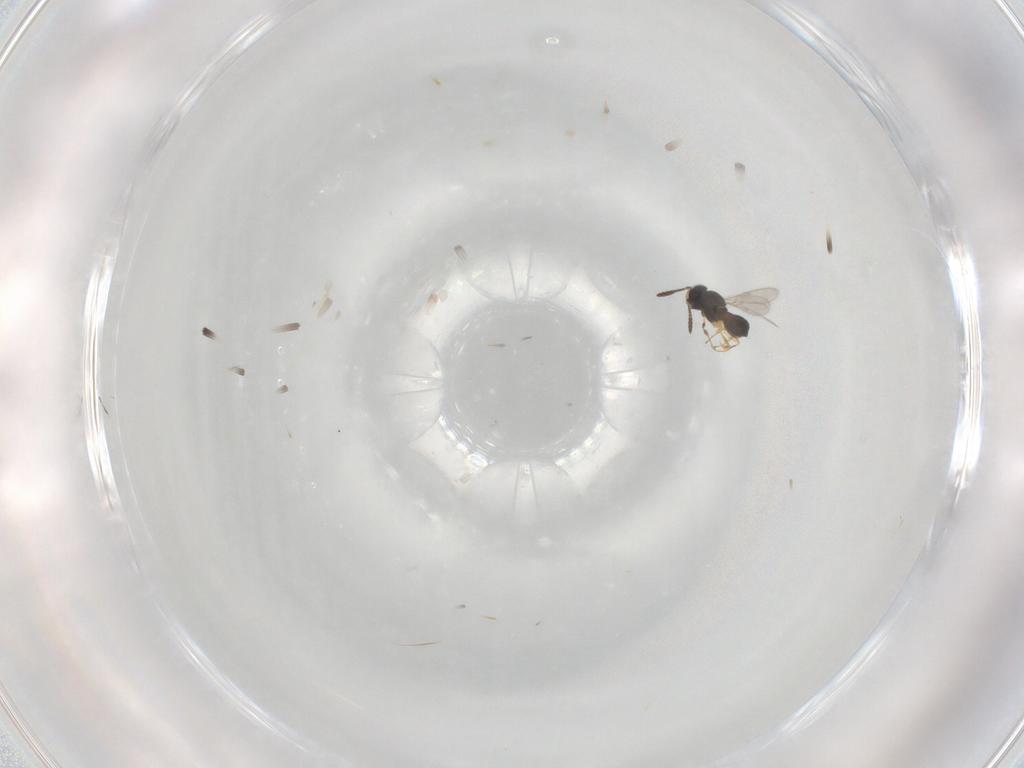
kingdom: Animalia
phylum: Arthropoda
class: Insecta
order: Hymenoptera
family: Scelionidae
